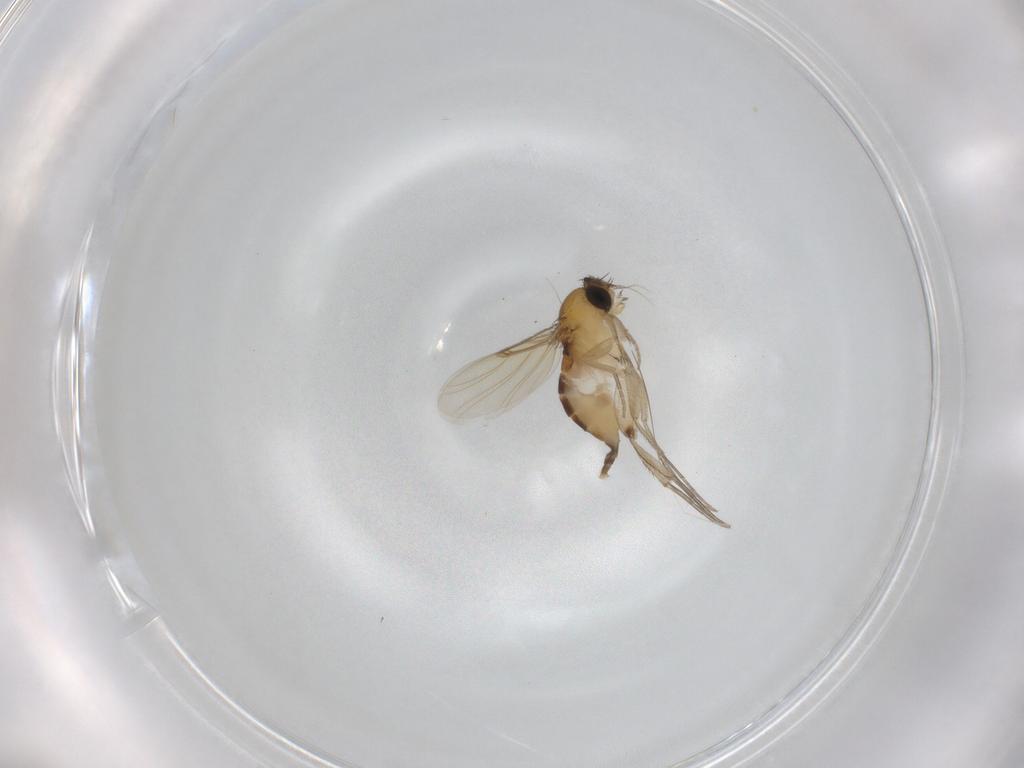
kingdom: Animalia
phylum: Arthropoda
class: Insecta
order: Diptera
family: Phoridae
